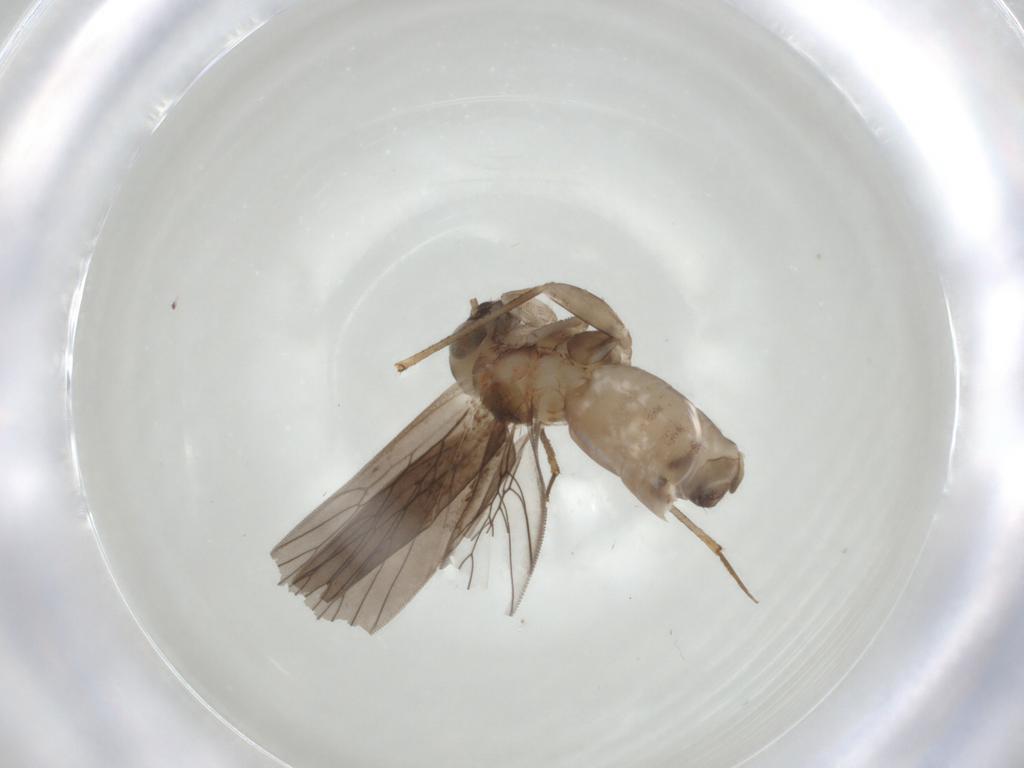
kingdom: Animalia
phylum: Arthropoda
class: Insecta
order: Psocodea
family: Lepidopsocidae
